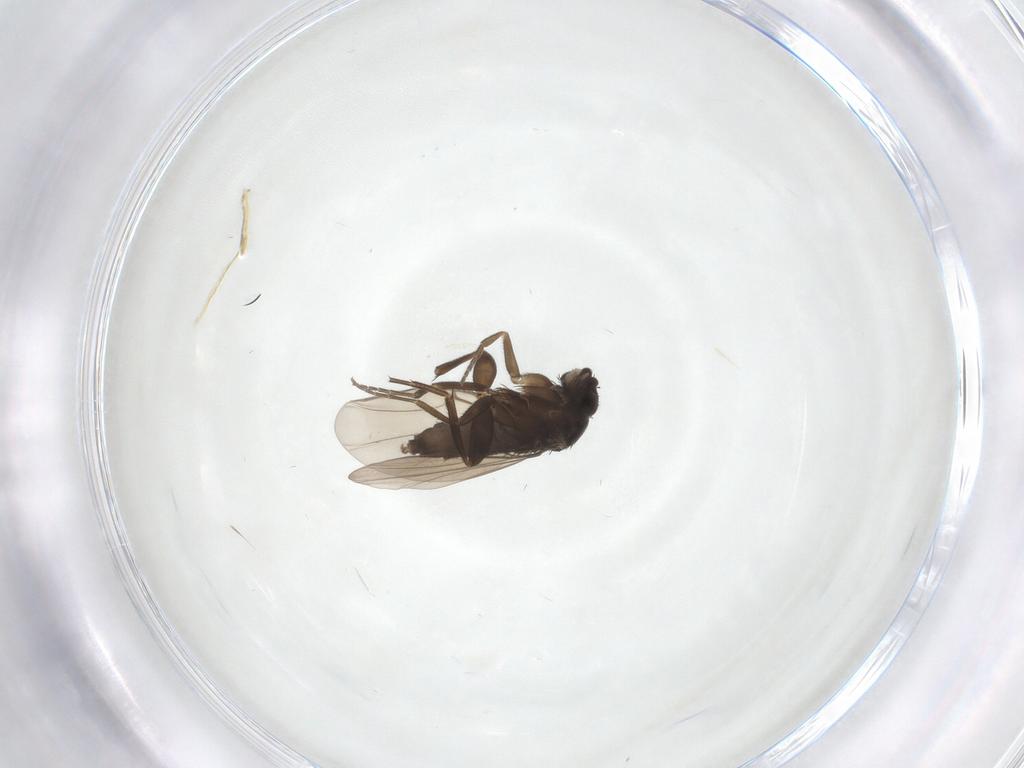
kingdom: Animalia
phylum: Arthropoda
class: Insecta
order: Diptera
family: Phoridae
